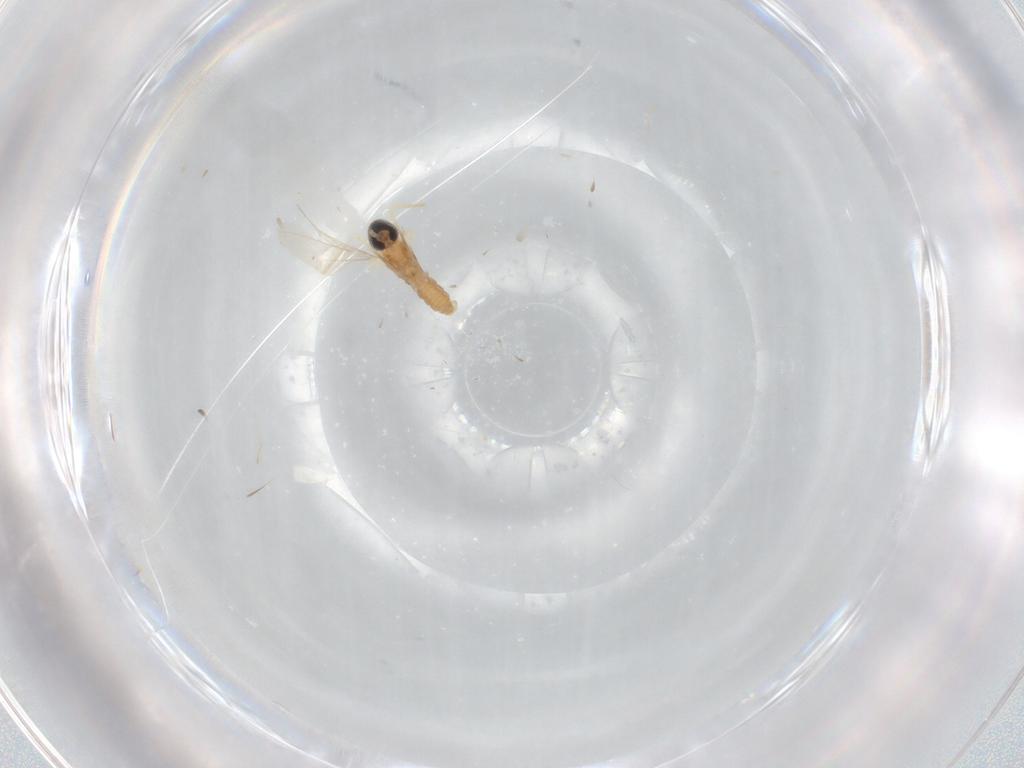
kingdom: Animalia
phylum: Arthropoda
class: Insecta
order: Diptera
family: Cecidomyiidae
